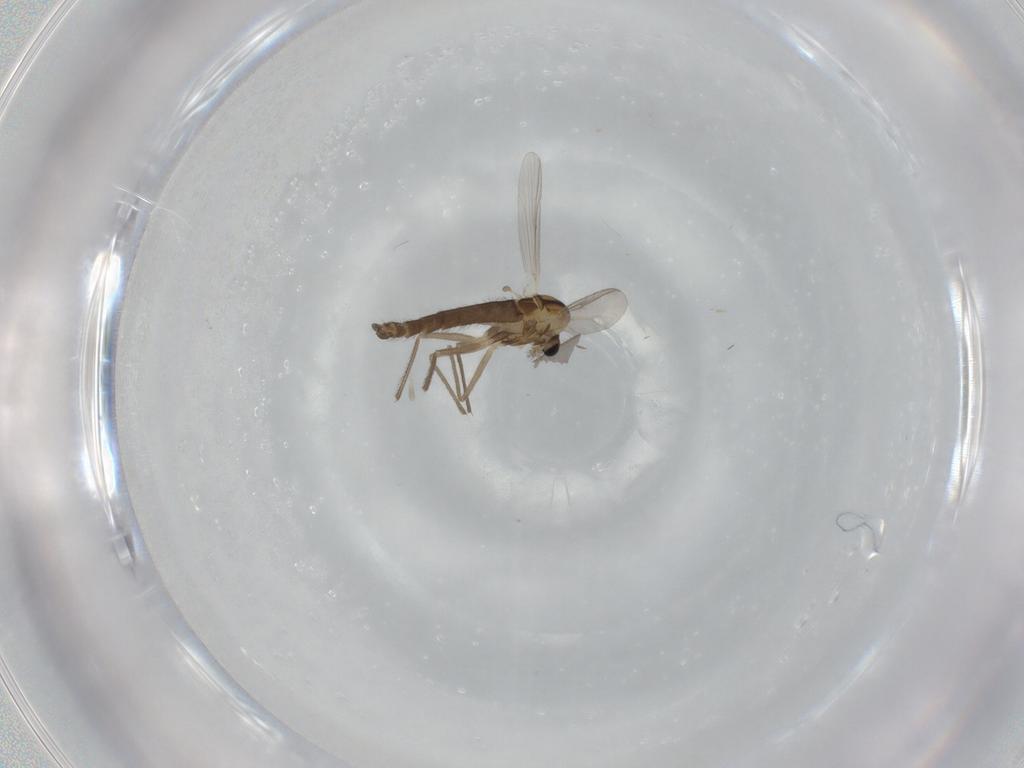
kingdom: Animalia
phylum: Arthropoda
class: Insecta
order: Diptera
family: Chironomidae
